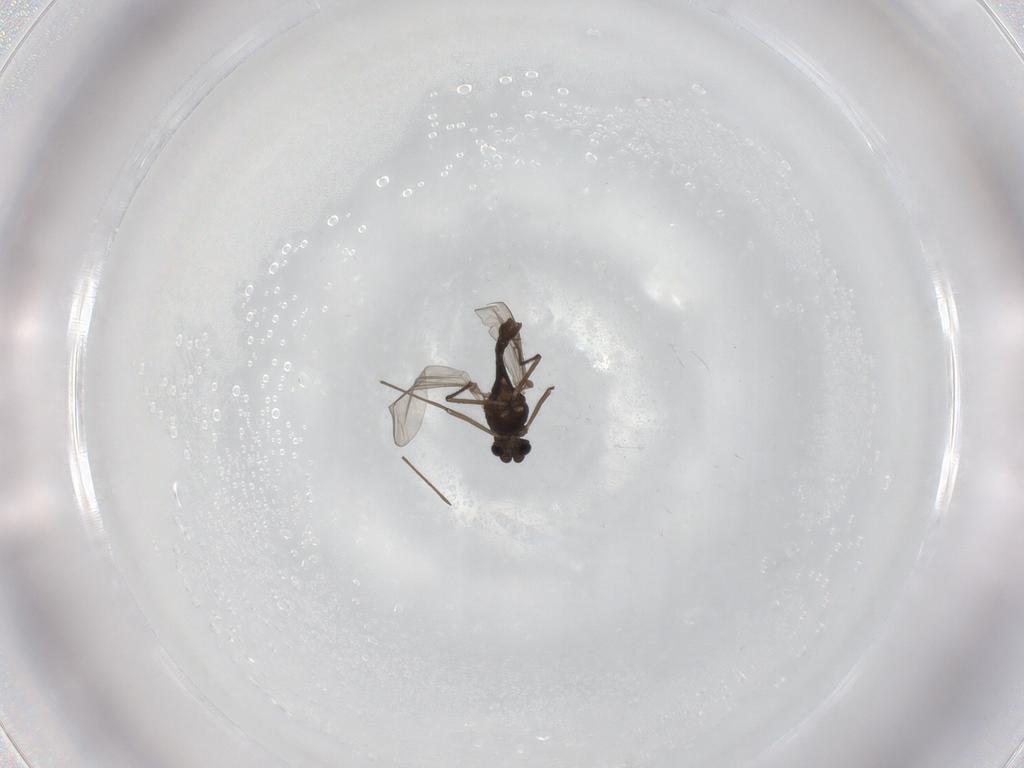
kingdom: Animalia
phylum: Arthropoda
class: Insecta
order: Diptera
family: Chironomidae
